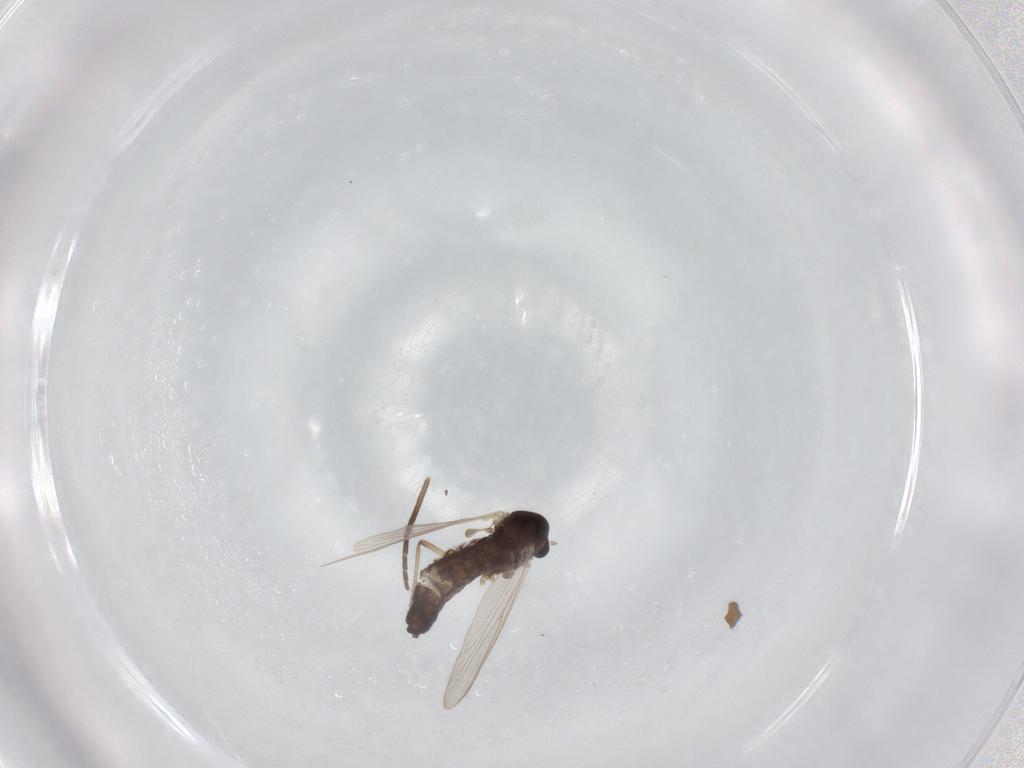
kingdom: Animalia
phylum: Arthropoda
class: Insecta
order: Diptera
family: Chironomidae
